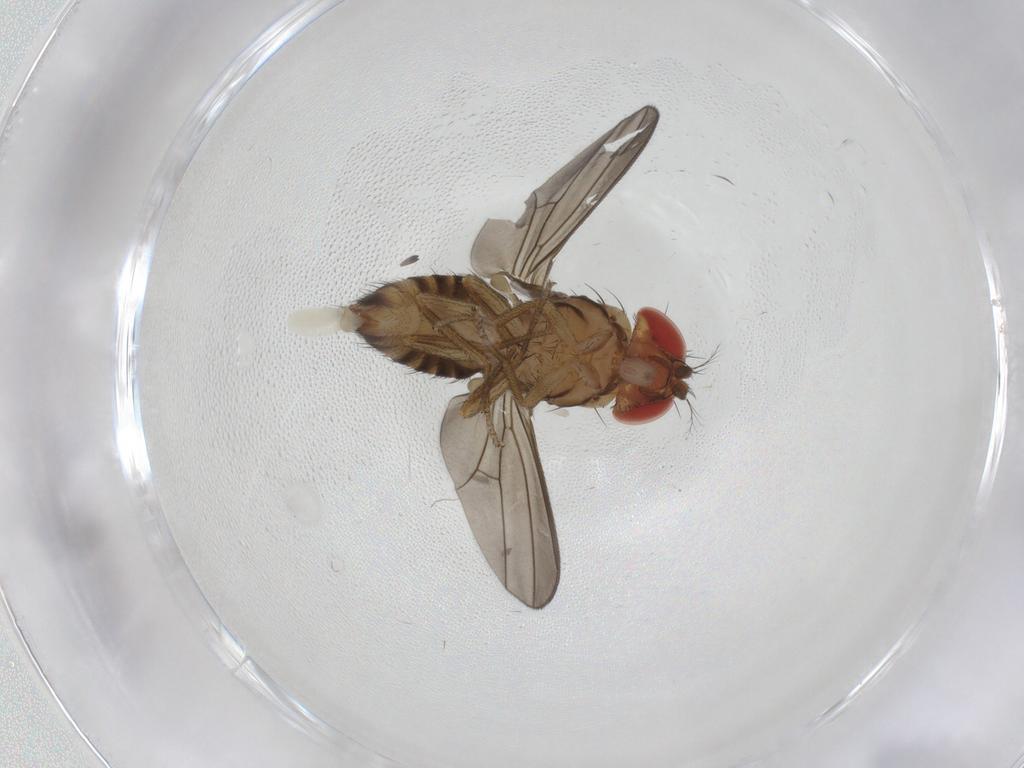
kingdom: Animalia
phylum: Arthropoda
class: Insecta
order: Diptera
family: Drosophilidae
